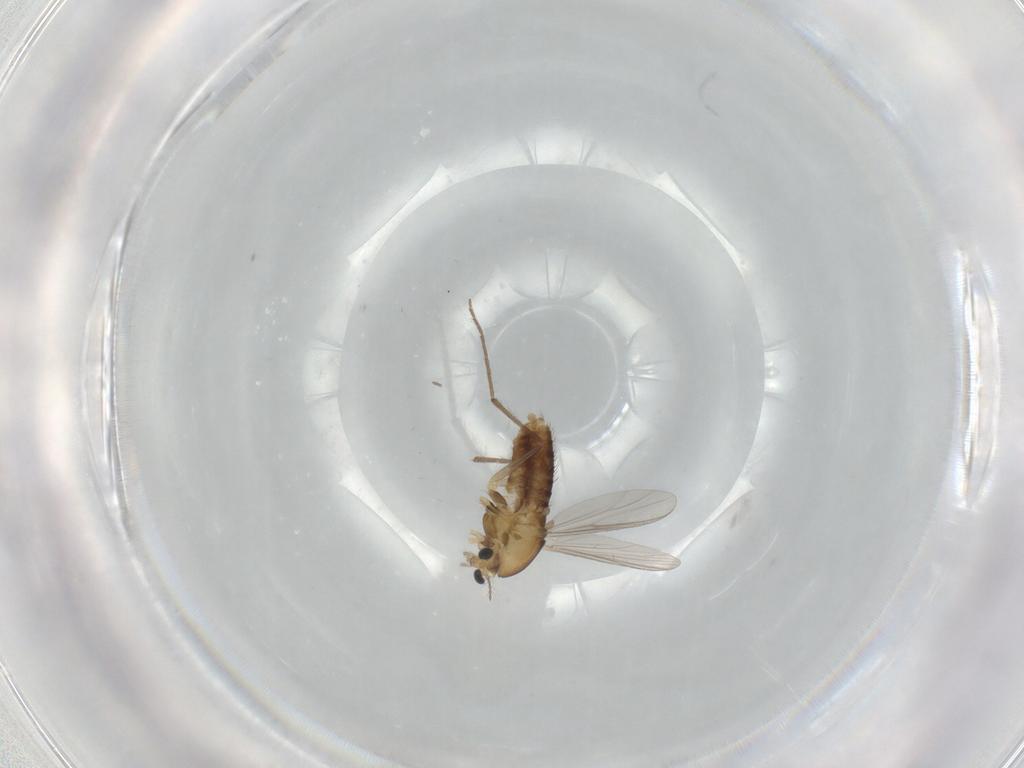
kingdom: Animalia
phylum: Arthropoda
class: Insecta
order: Diptera
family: Chironomidae
